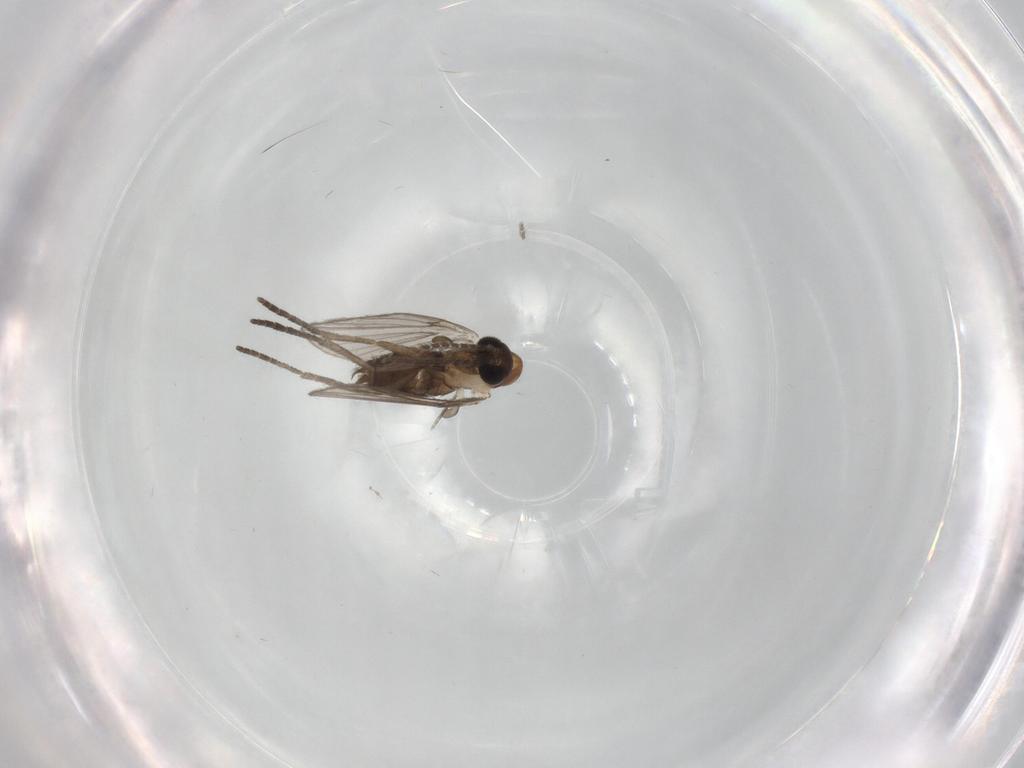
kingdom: Animalia
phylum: Arthropoda
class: Insecta
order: Diptera
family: Psychodidae
